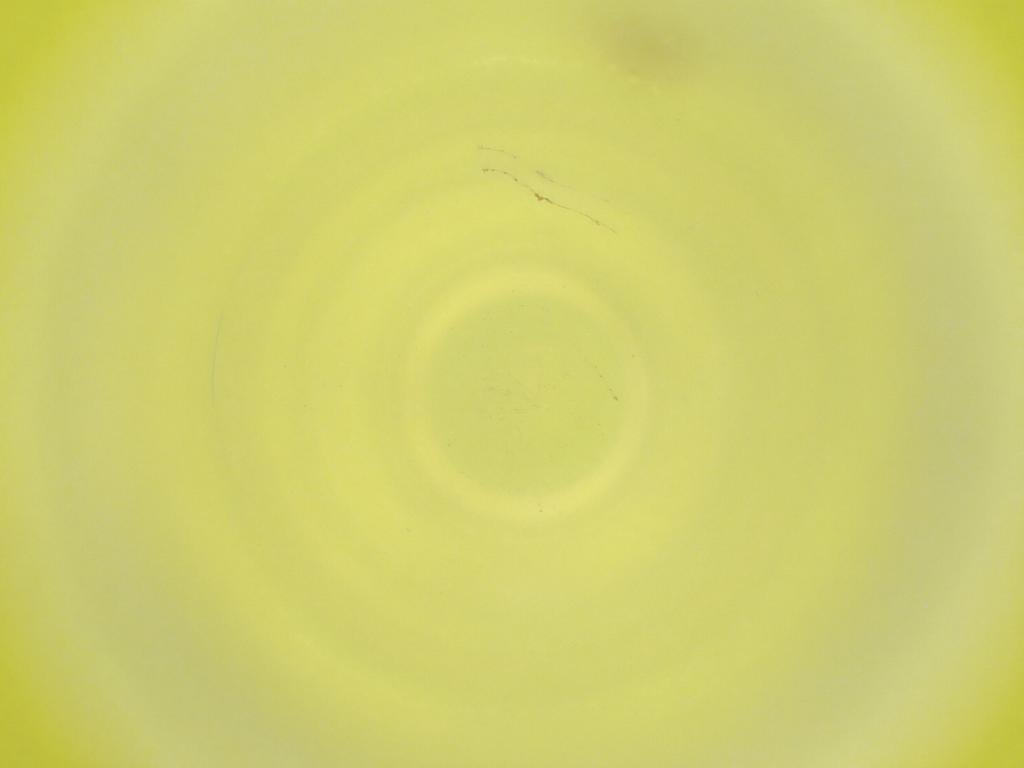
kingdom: Animalia
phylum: Arthropoda
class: Insecta
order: Diptera
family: Cecidomyiidae
